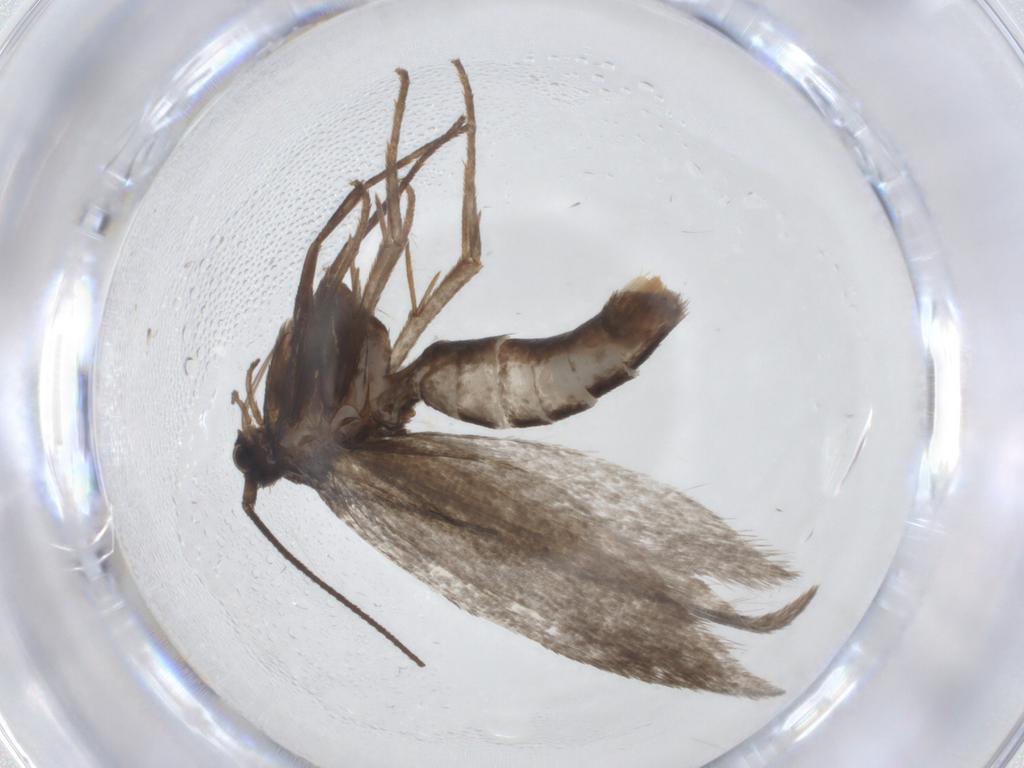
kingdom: Animalia
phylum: Arthropoda
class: Insecta
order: Lepidoptera
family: Argyresthiidae
